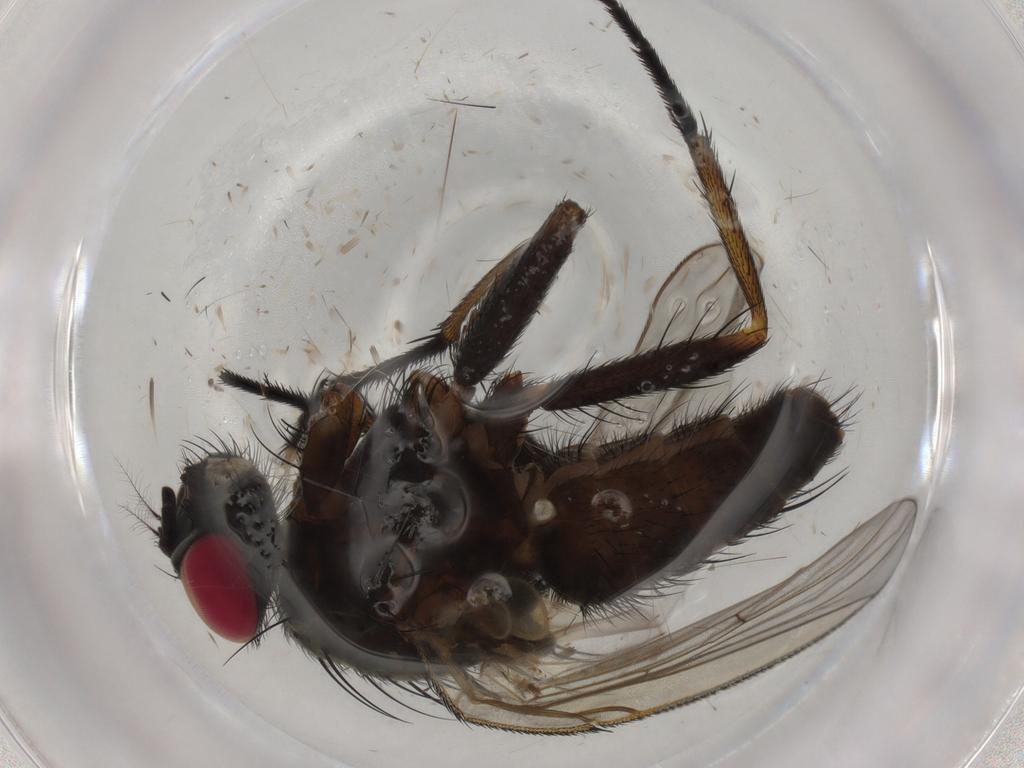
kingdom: Animalia
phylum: Arthropoda
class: Insecta
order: Diptera
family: Muscidae
